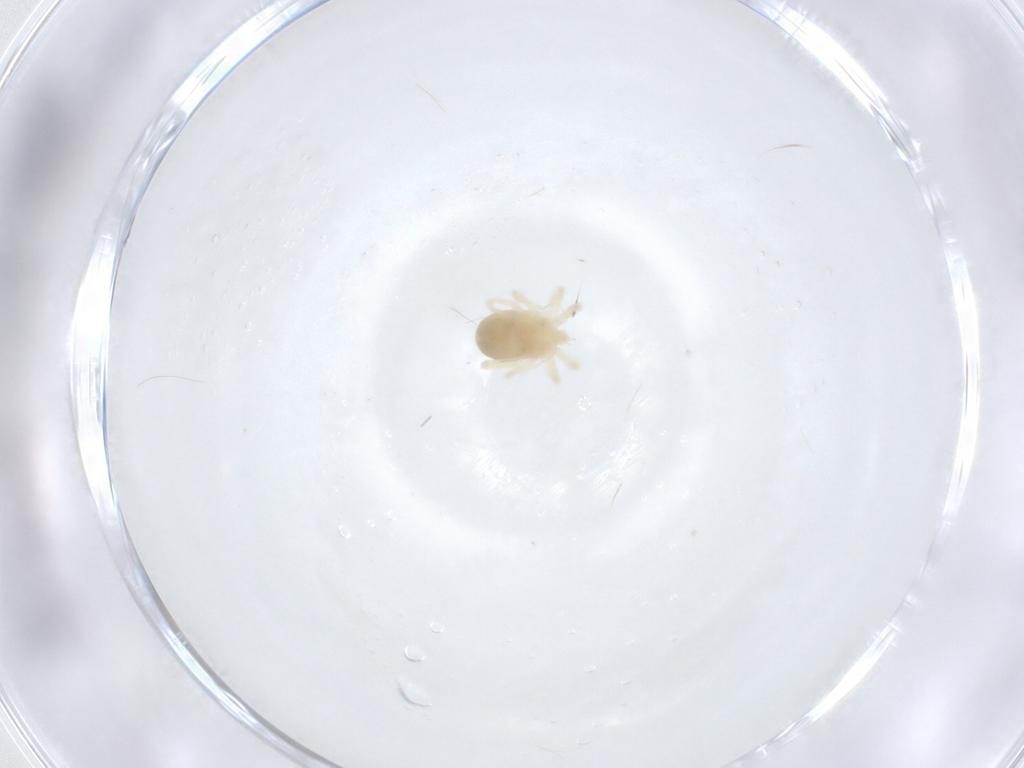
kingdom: Animalia
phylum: Arthropoda
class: Arachnida
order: Trombidiformes
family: Anystidae
